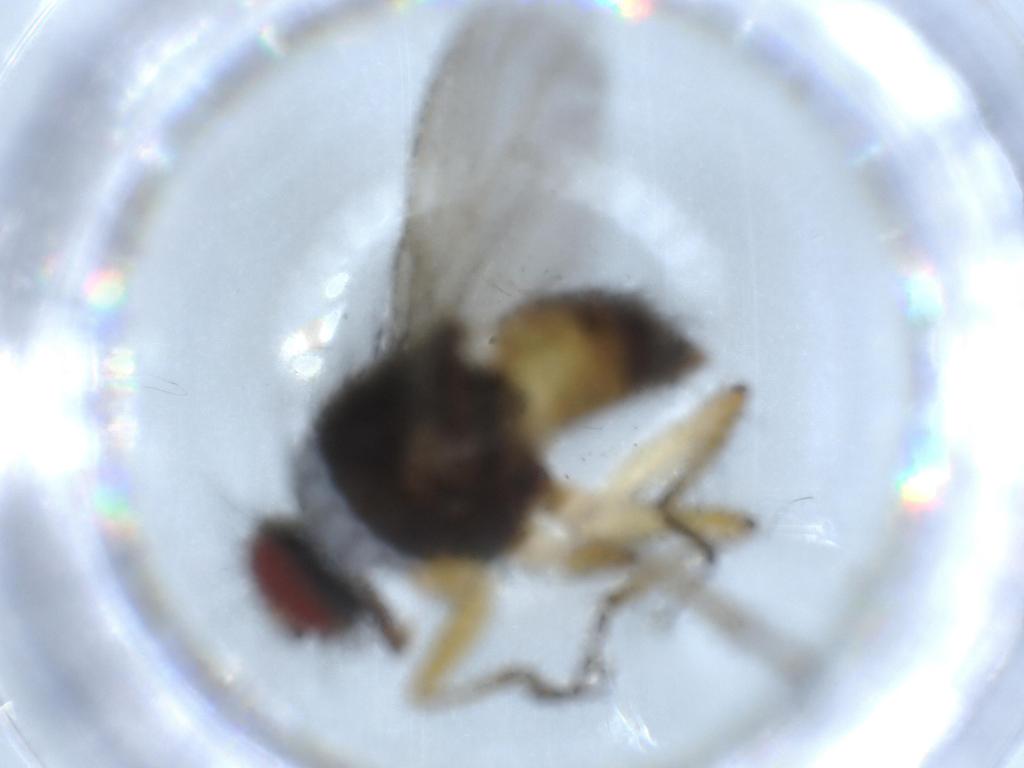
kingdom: Animalia
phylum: Arthropoda
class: Insecta
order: Diptera
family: Muscidae
